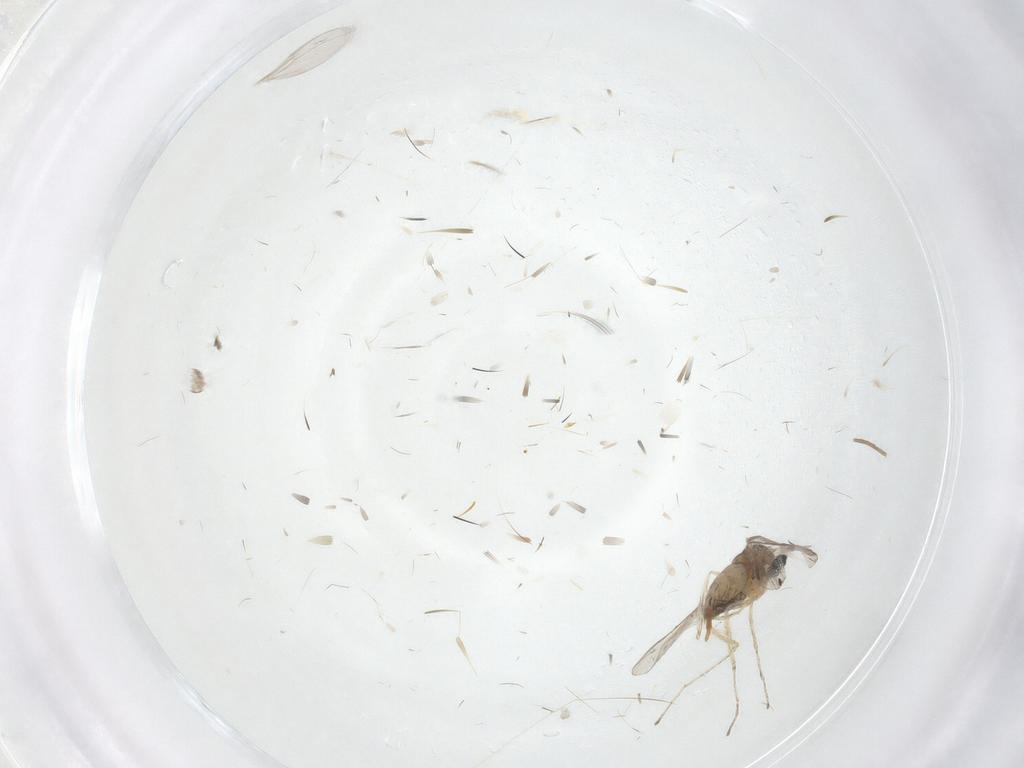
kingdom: Animalia
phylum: Arthropoda
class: Insecta
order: Diptera
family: Cecidomyiidae
